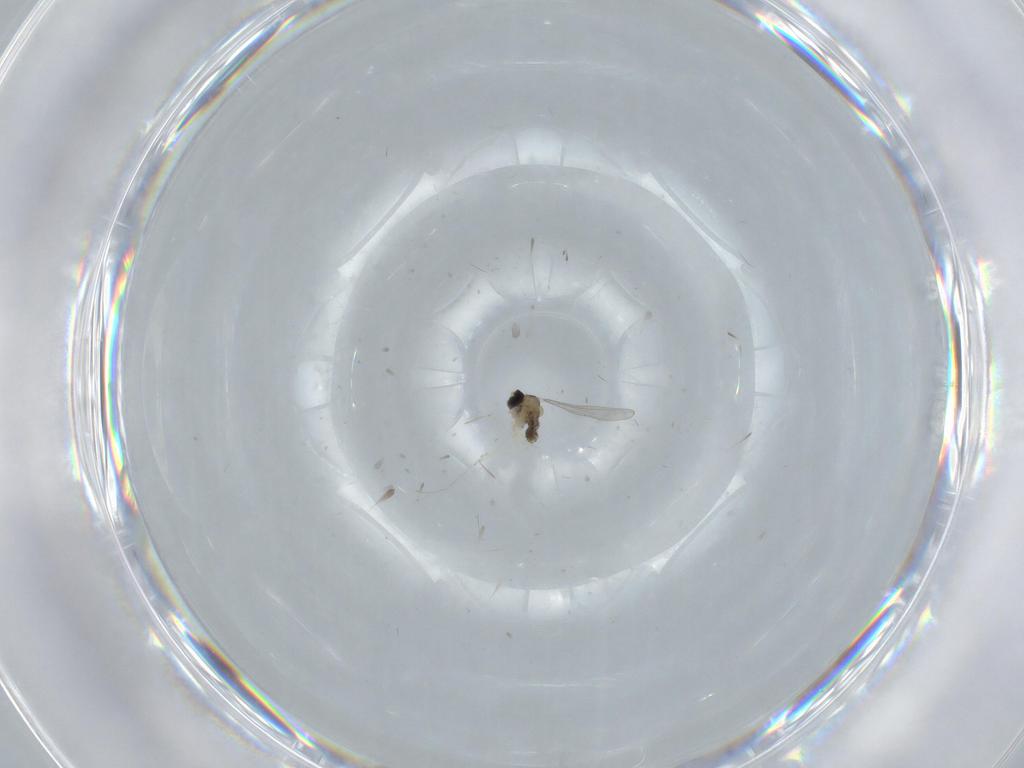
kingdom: Animalia
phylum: Arthropoda
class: Insecta
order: Diptera
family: Cecidomyiidae
